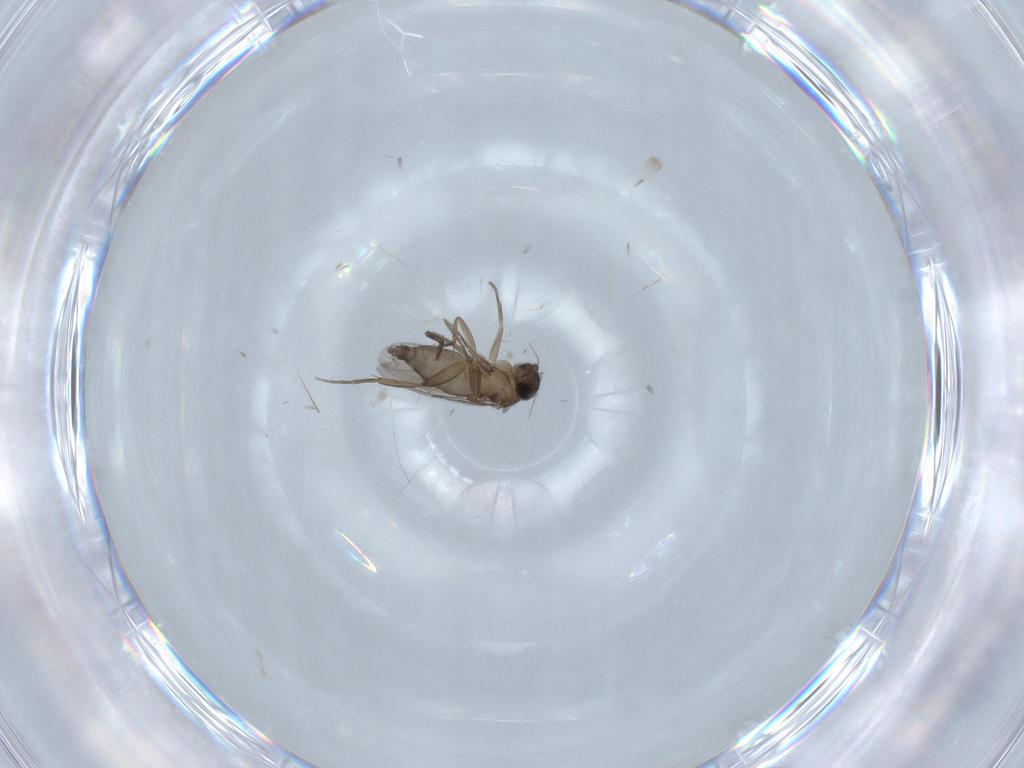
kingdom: Animalia
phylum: Arthropoda
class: Insecta
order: Diptera
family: Phoridae
